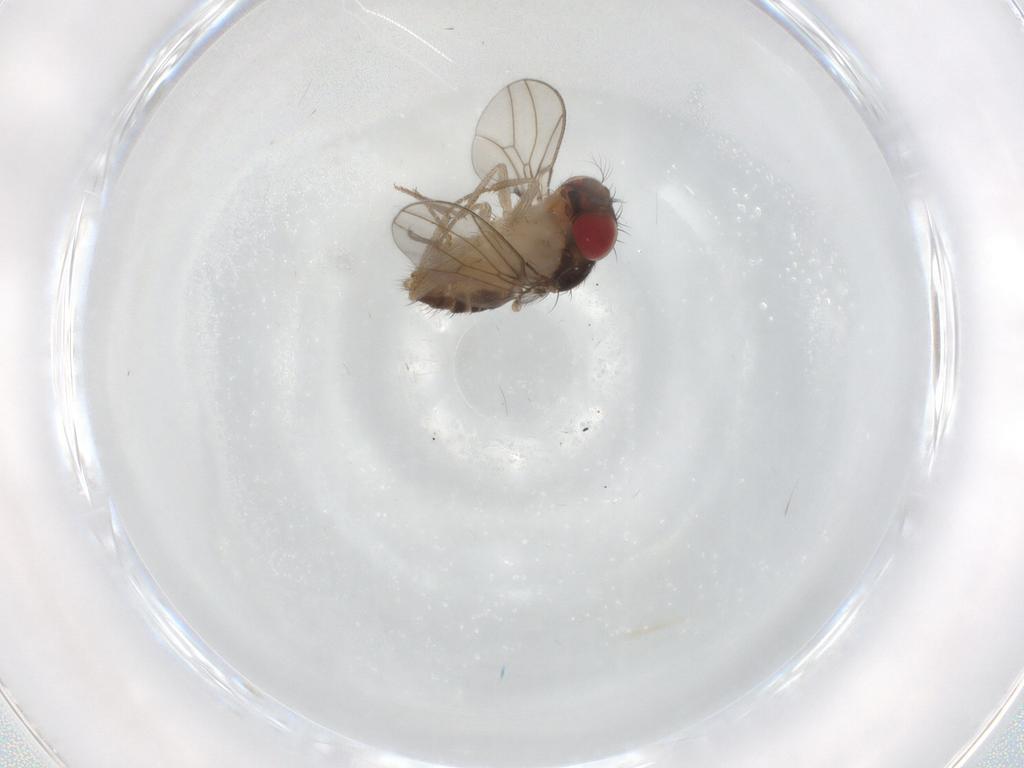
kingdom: Animalia
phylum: Arthropoda
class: Insecta
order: Diptera
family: Drosophilidae
